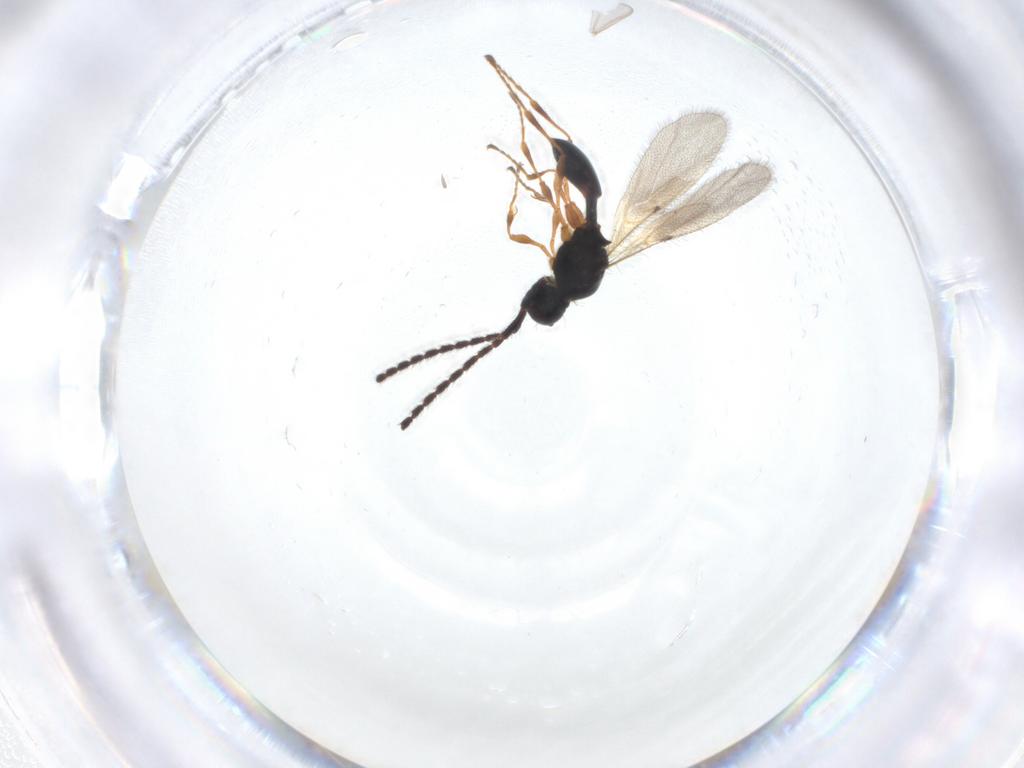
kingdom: Animalia
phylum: Arthropoda
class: Insecta
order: Hymenoptera
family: Diapriidae
